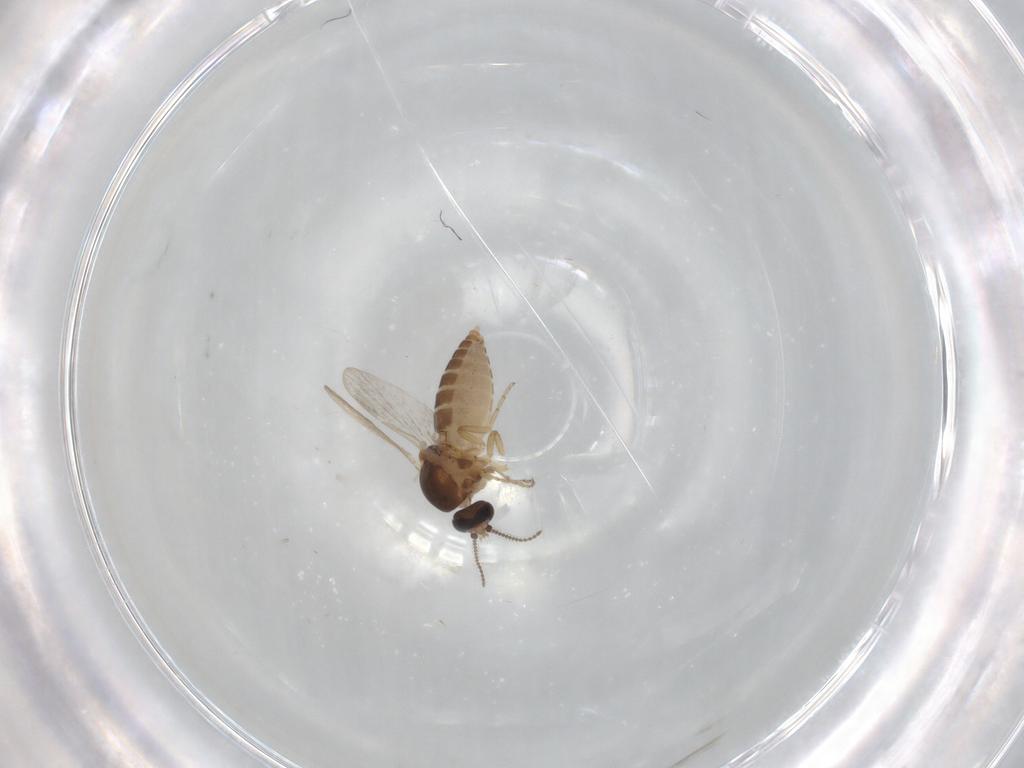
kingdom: Animalia
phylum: Arthropoda
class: Insecta
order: Diptera
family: Ceratopogonidae
